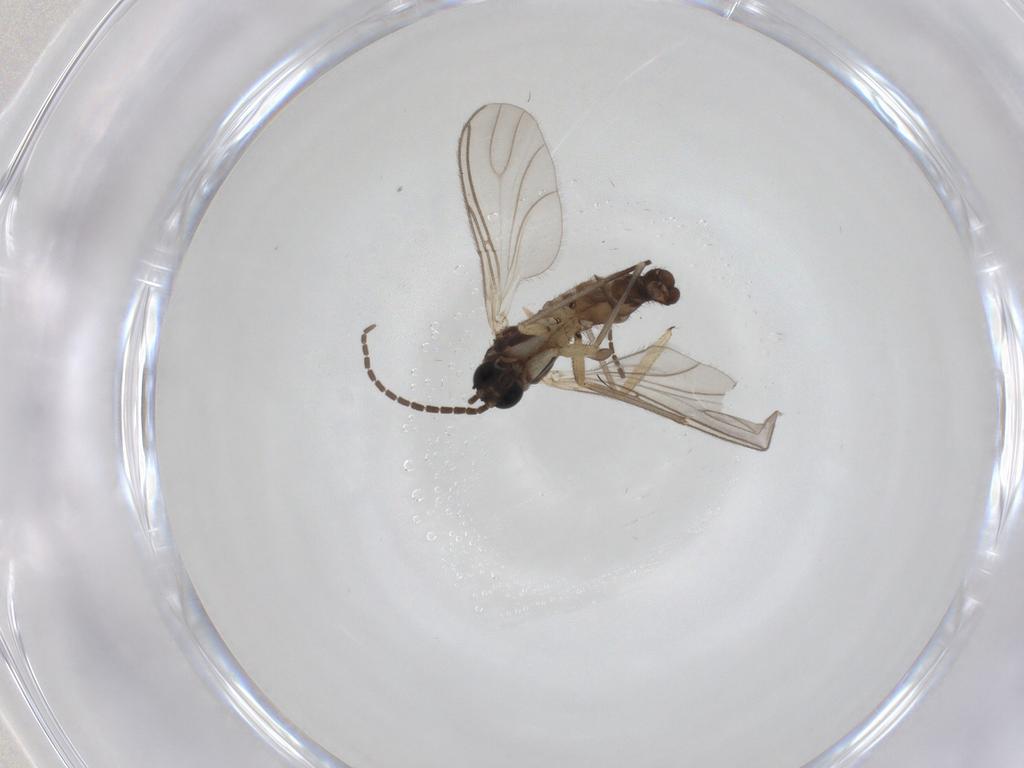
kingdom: Animalia
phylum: Arthropoda
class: Insecta
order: Diptera
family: Sciaridae
